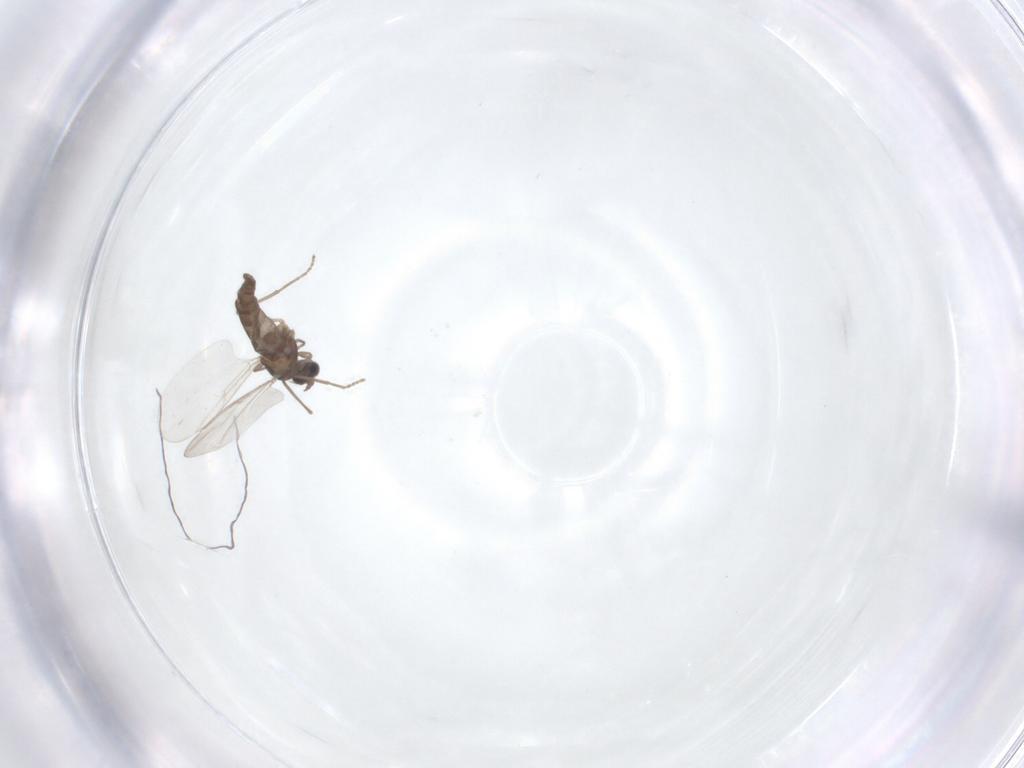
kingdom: Animalia
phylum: Arthropoda
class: Insecta
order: Diptera
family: Cecidomyiidae
